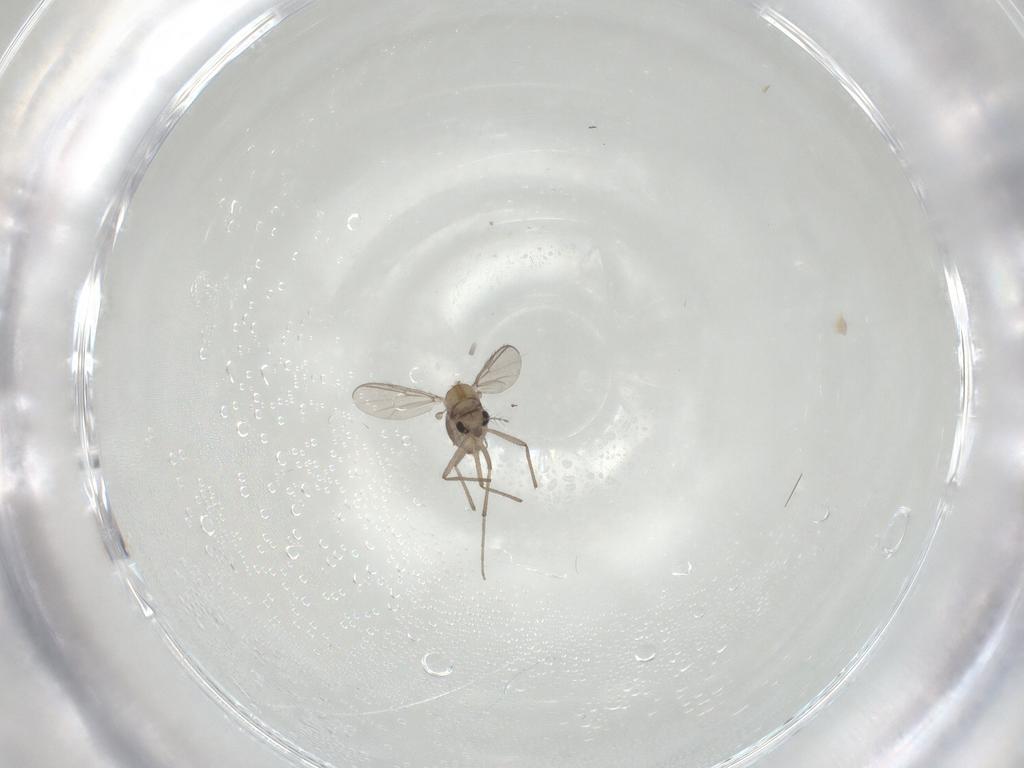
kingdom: Animalia
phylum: Arthropoda
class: Insecta
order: Diptera
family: Chironomidae
